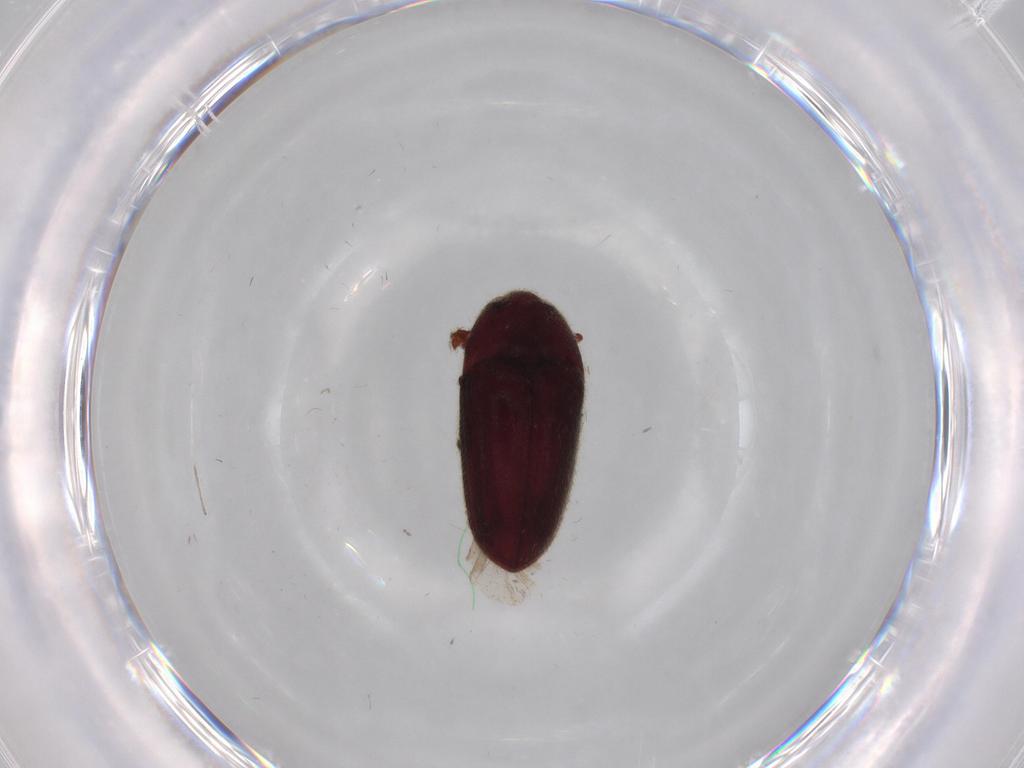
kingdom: Animalia
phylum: Arthropoda
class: Insecta
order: Coleoptera
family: Throscidae
